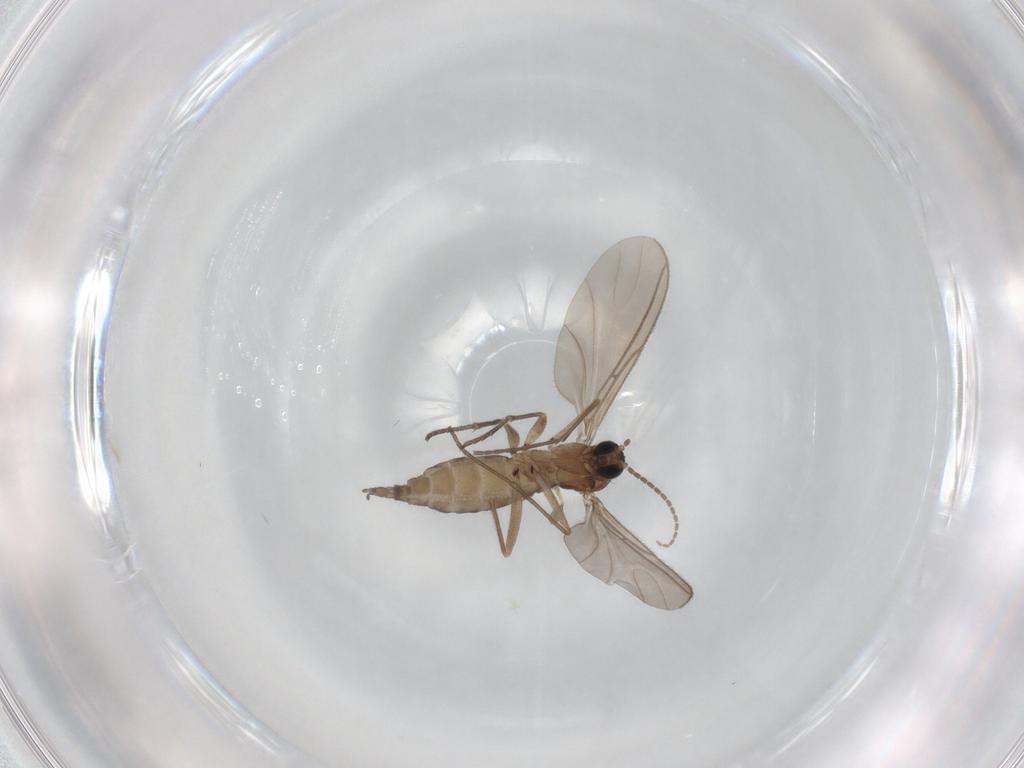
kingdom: Animalia
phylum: Arthropoda
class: Insecta
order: Diptera
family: Sciaridae
